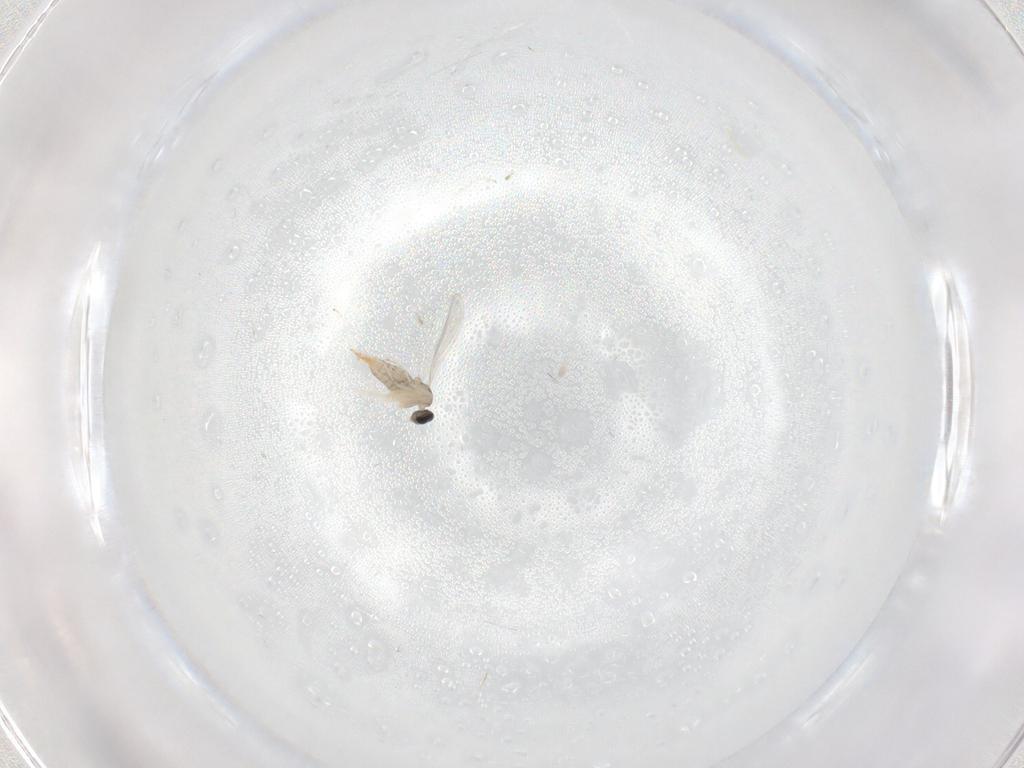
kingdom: Animalia
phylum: Arthropoda
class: Insecta
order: Diptera
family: Cecidomyiidae
